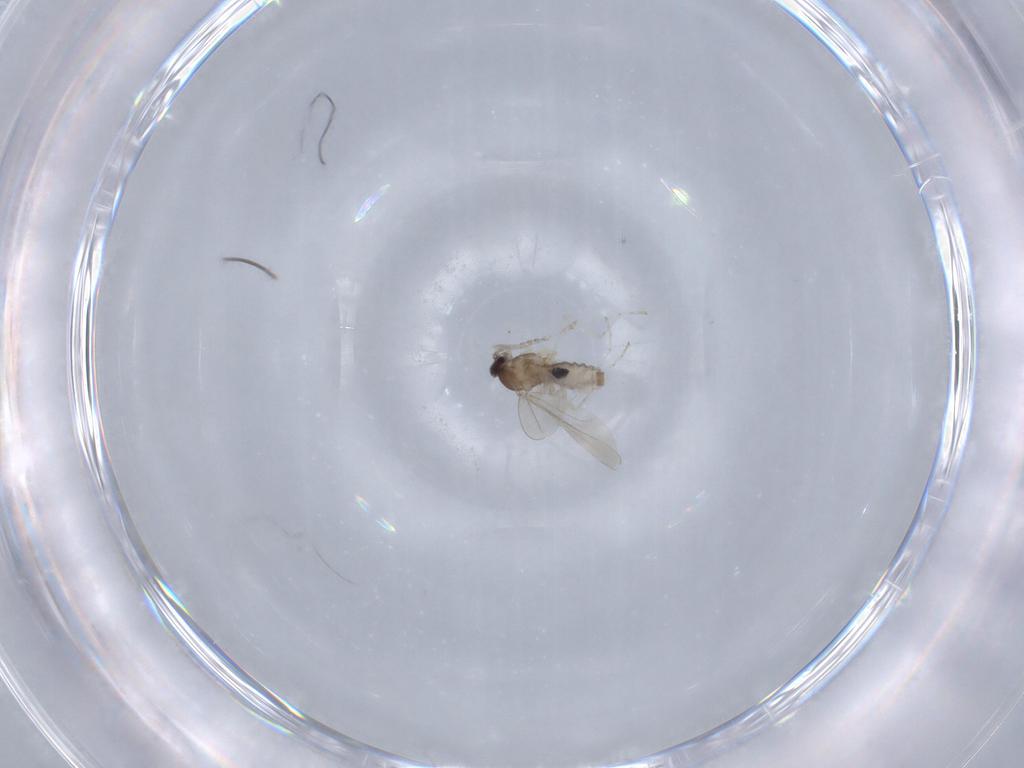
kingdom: Animalia
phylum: Arthropoda
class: Insecta
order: Diptera
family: Cecidomyiidae
